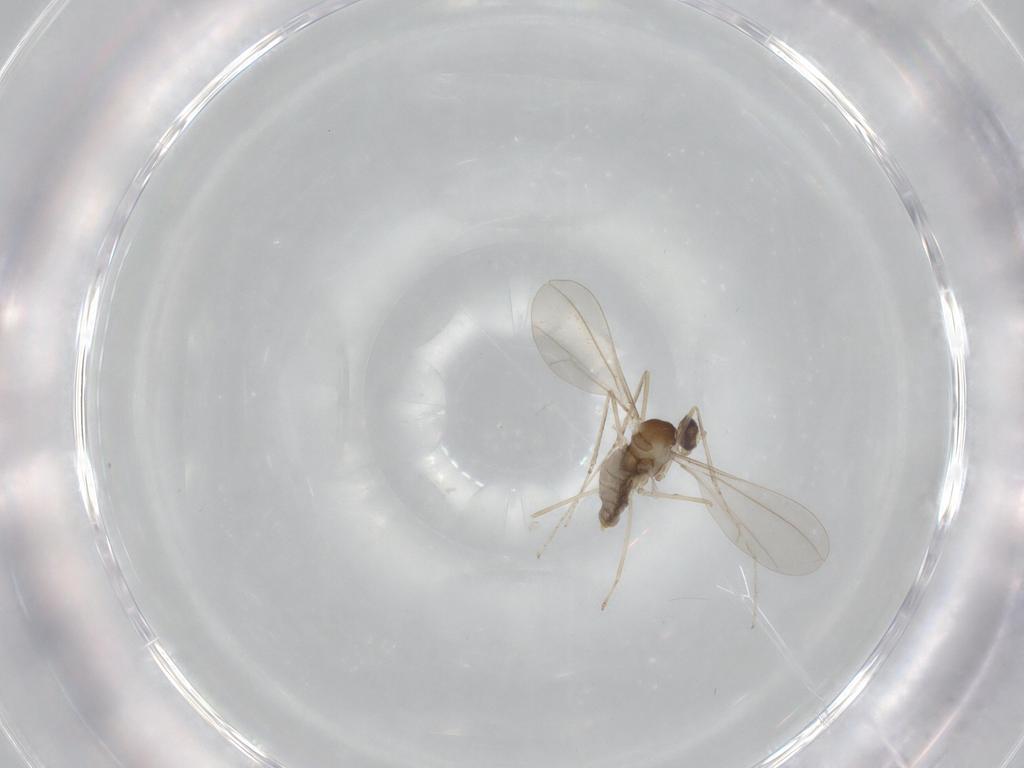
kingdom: Animalia
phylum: Arthropoda
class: Insecta
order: Diptera
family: Cecidomyiidae
